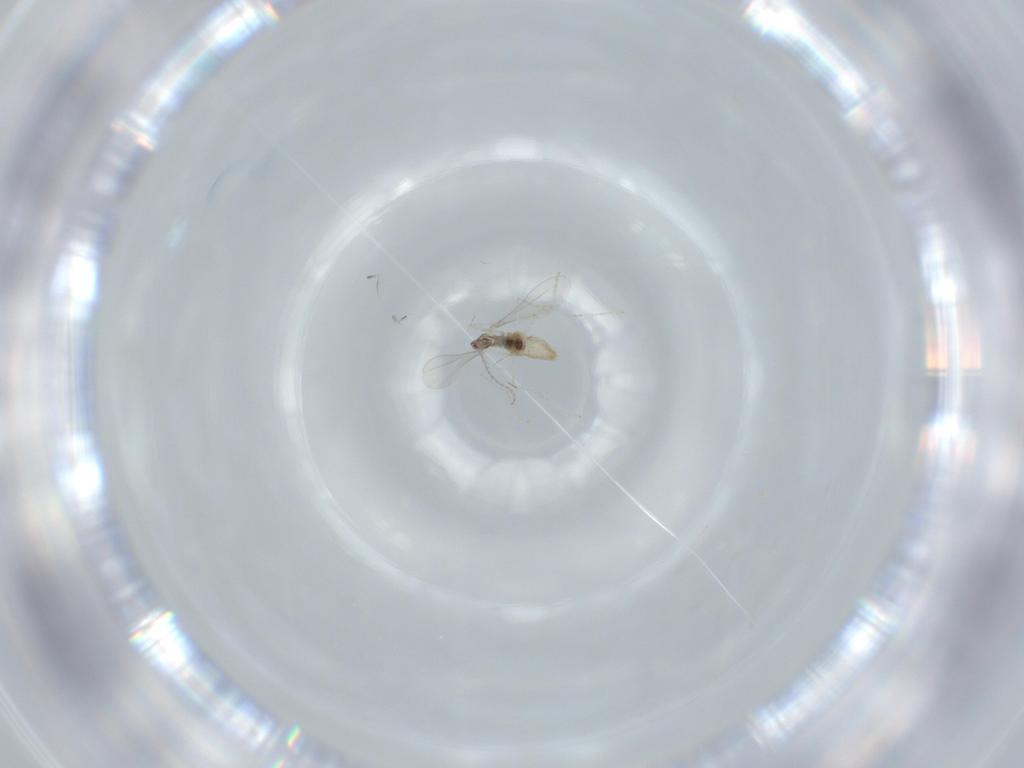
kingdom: Animalia
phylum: Arthropoda
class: Insecta
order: Diptera
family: Cecidomyiidae
